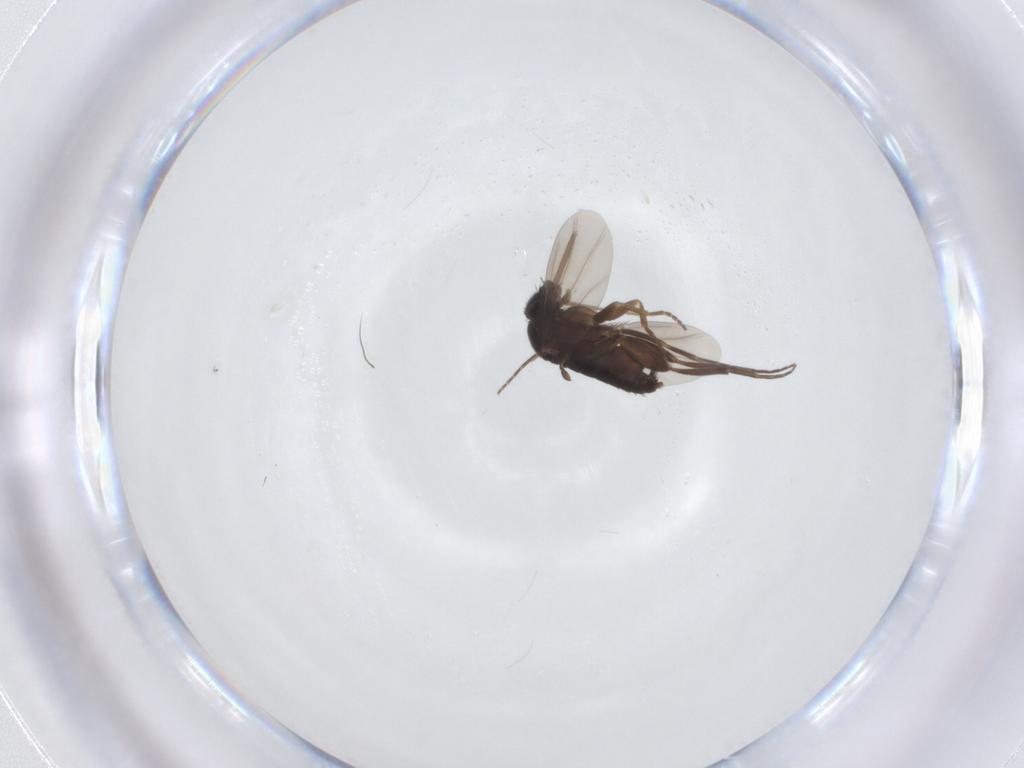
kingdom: Animalia
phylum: Arthropoda
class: Insecta
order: Diptera
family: Phoridae
